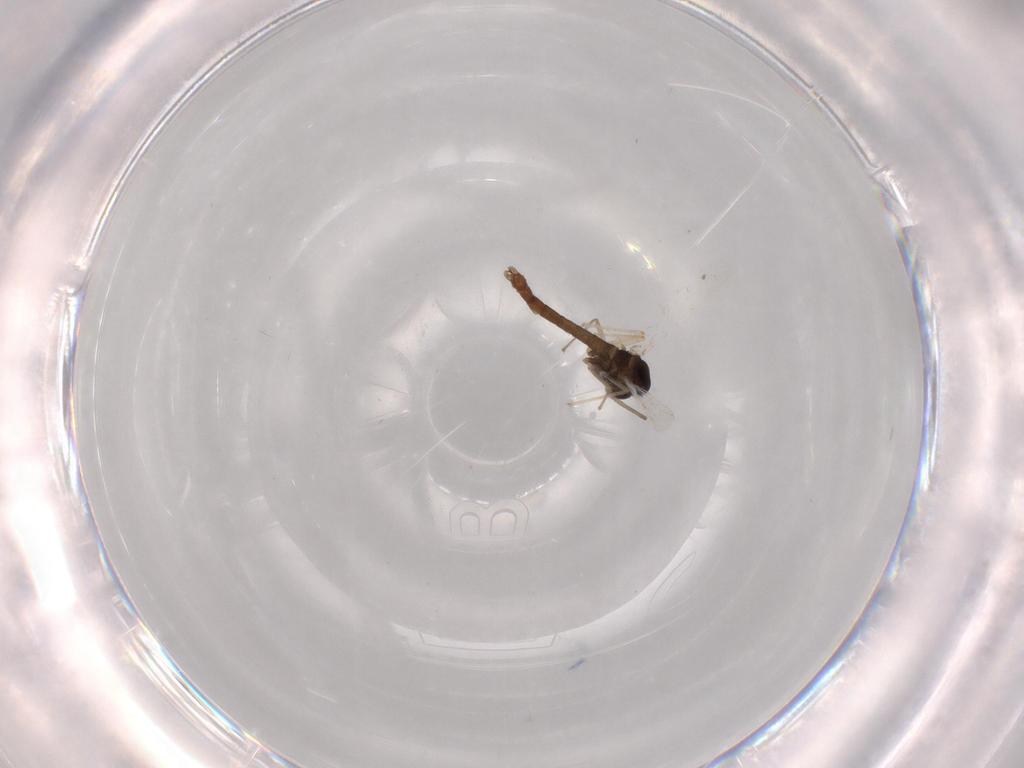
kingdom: Animalia
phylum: Arthropoda
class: Insecta
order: Diptera
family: Chironomidae
